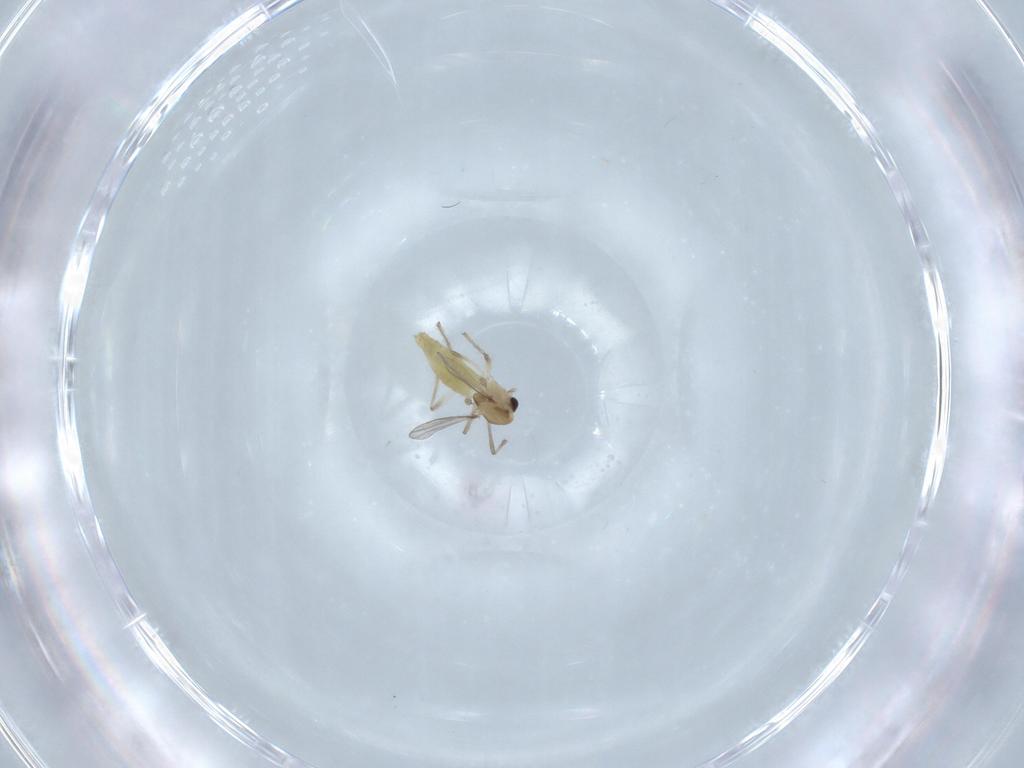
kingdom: Animalia
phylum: Arthropoda
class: Insecta
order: Diptera
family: Chironomidae
